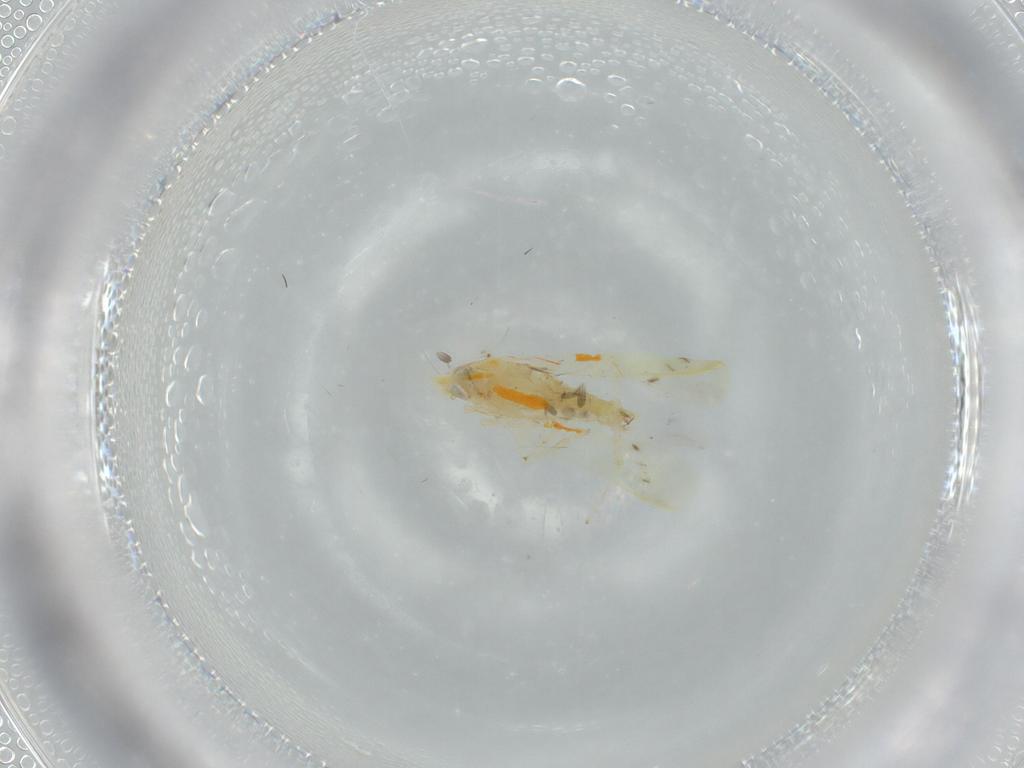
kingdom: Animalia
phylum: Arthropoda
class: Insecta
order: Hemiptera
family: Cicadellidae
